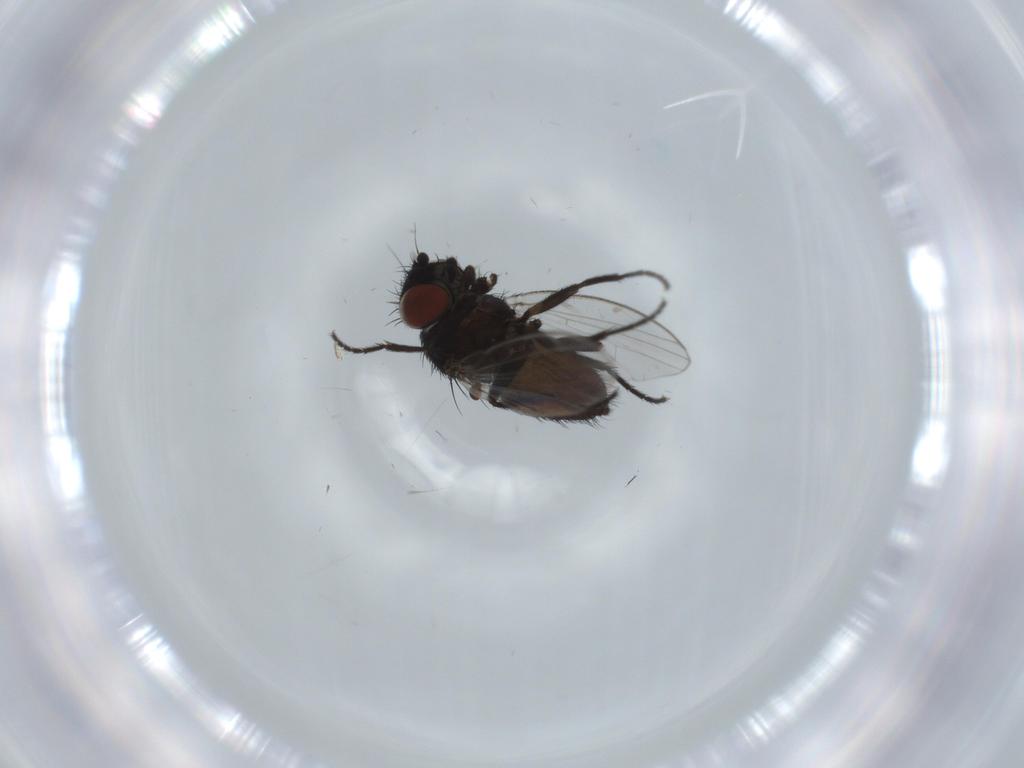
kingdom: Animalia
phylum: Arthropoda
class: Insecta
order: Diptera
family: Milichiidae
